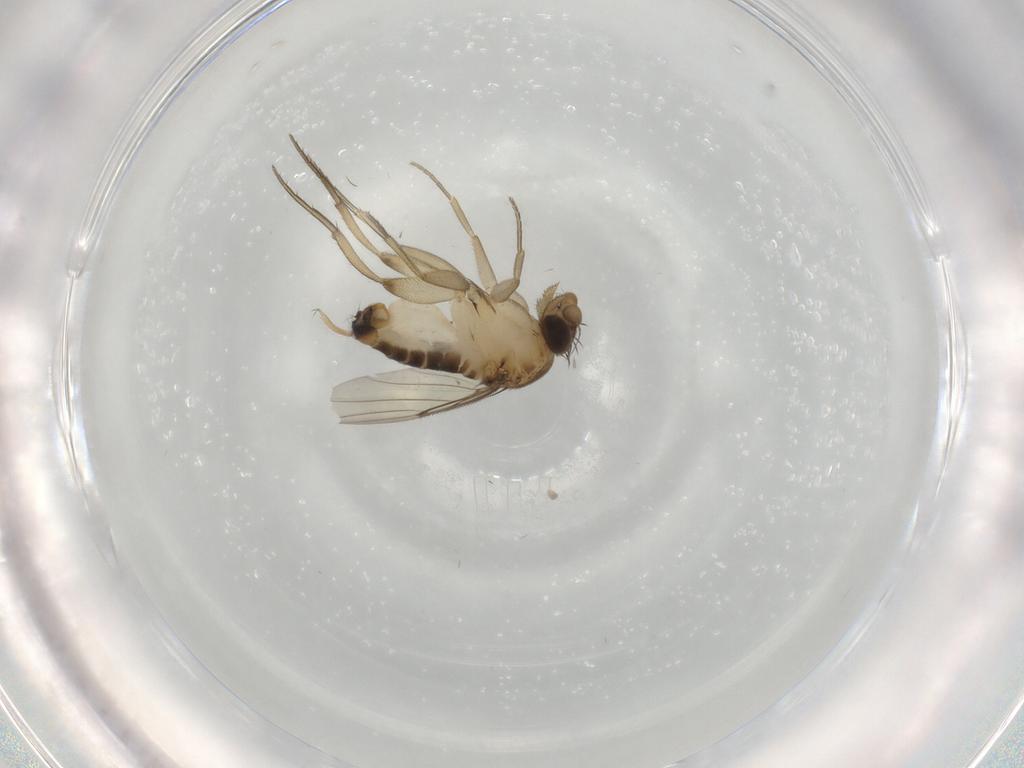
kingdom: Animalia
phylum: Arthropoda
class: Insecta
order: Diptera
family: Phoridae
